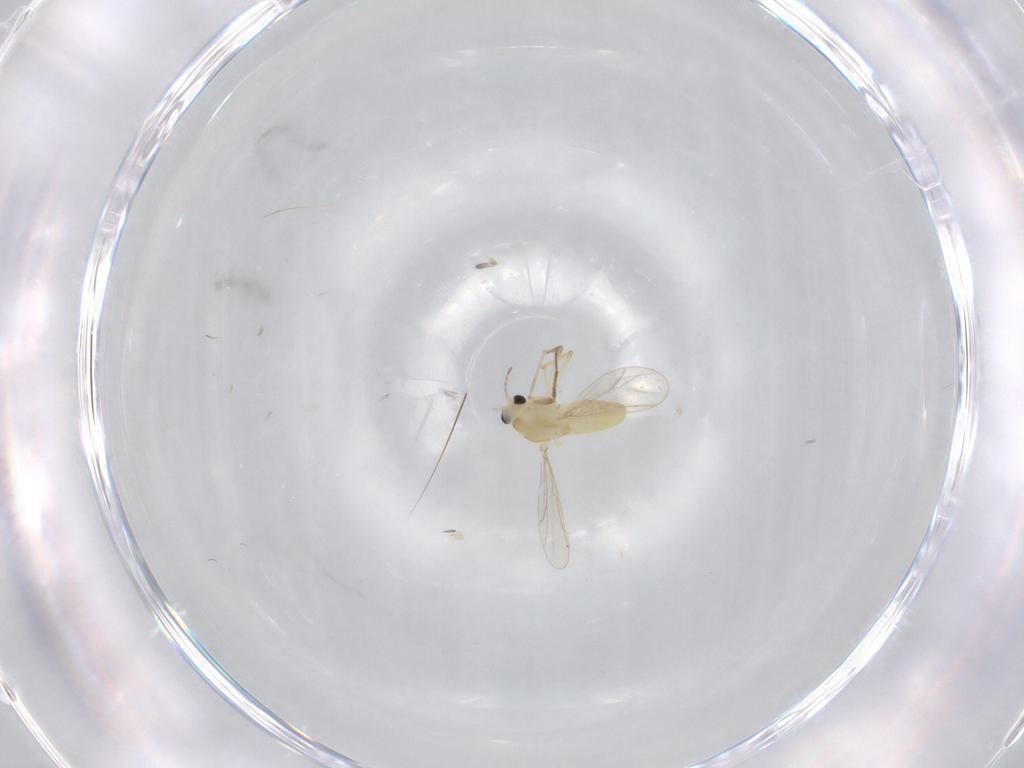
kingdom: Animalia
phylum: Arthropoda
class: Insecta
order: Diptera
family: Chironomidae
